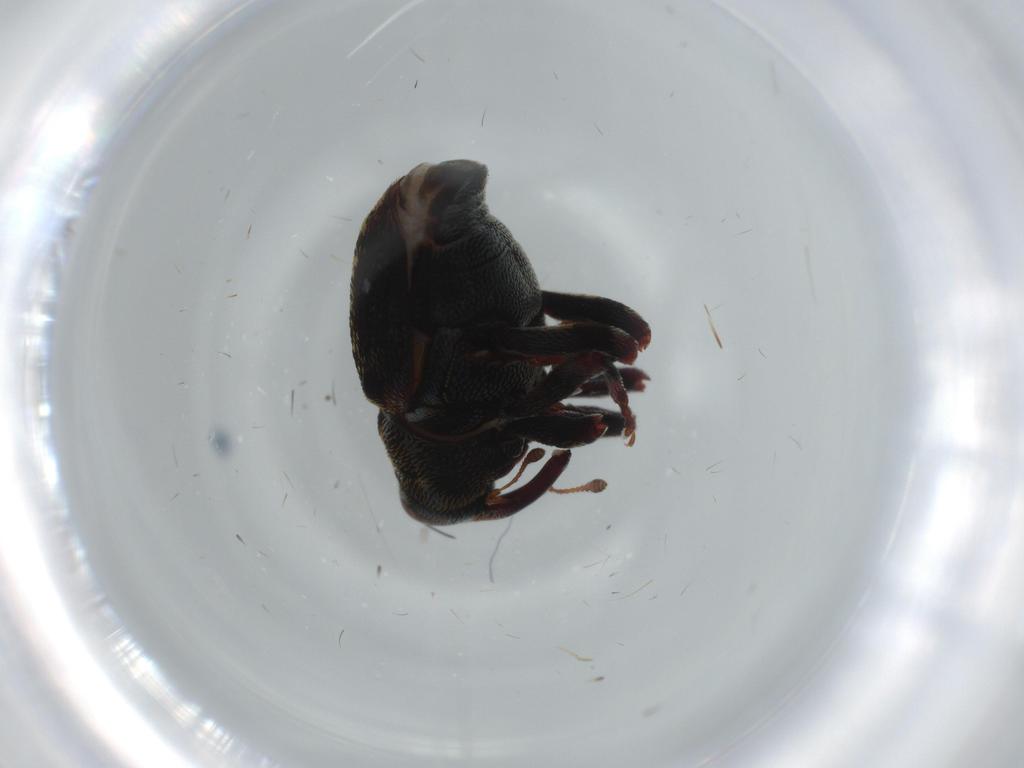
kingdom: Animalia
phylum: Arthropoda
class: Insecta
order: Coleoptera
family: Curculionidae
